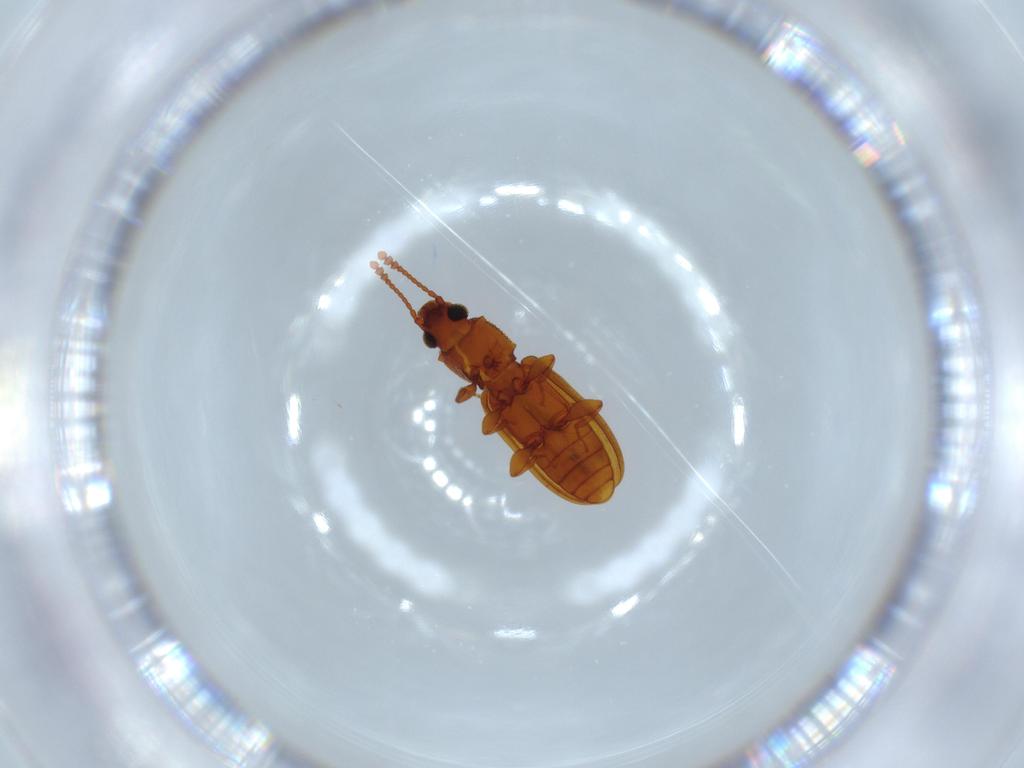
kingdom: Animalia
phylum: Arthropoda
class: Insecta
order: Coleoptera
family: Silvanidae
